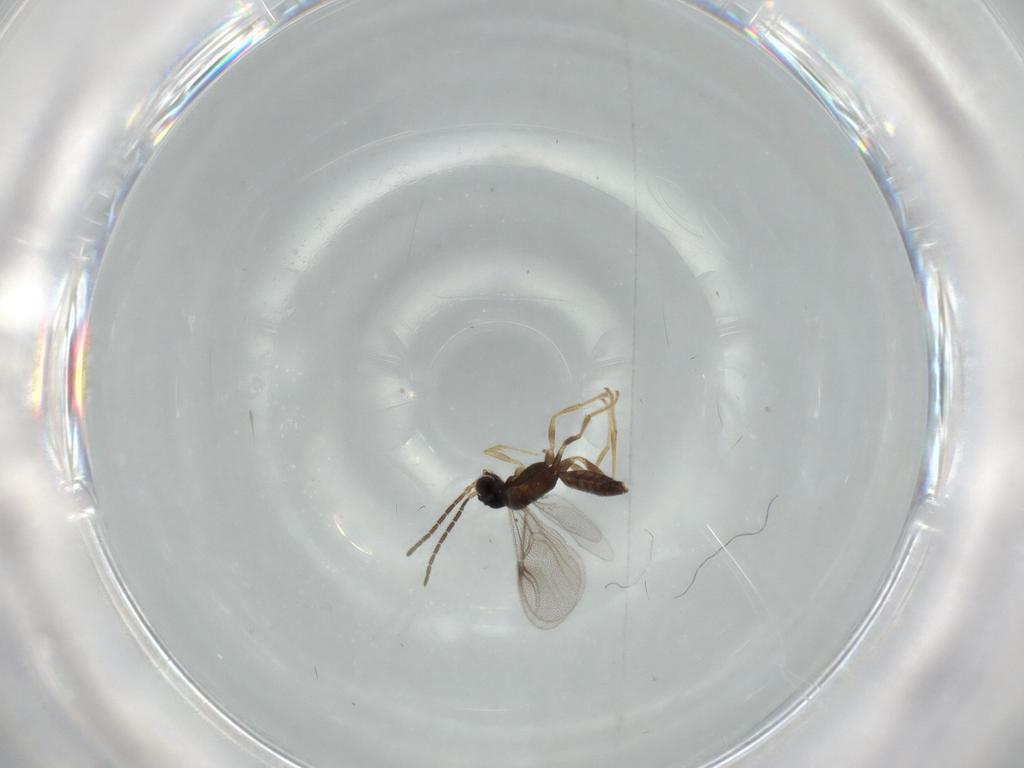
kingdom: Animalia
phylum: Arthropoda
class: Insecta
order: Hymenoptera
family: Dryinidae
